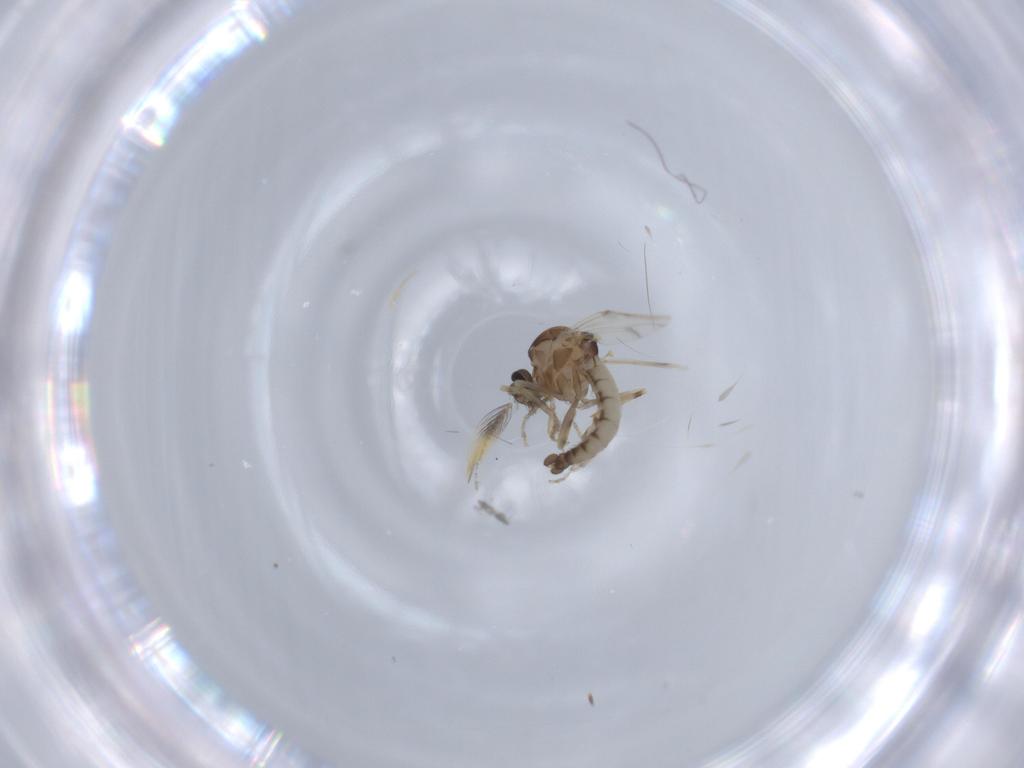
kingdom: Animalia
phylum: Arthropoda
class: Insecta
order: Diptera
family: Ceratopogonidae
